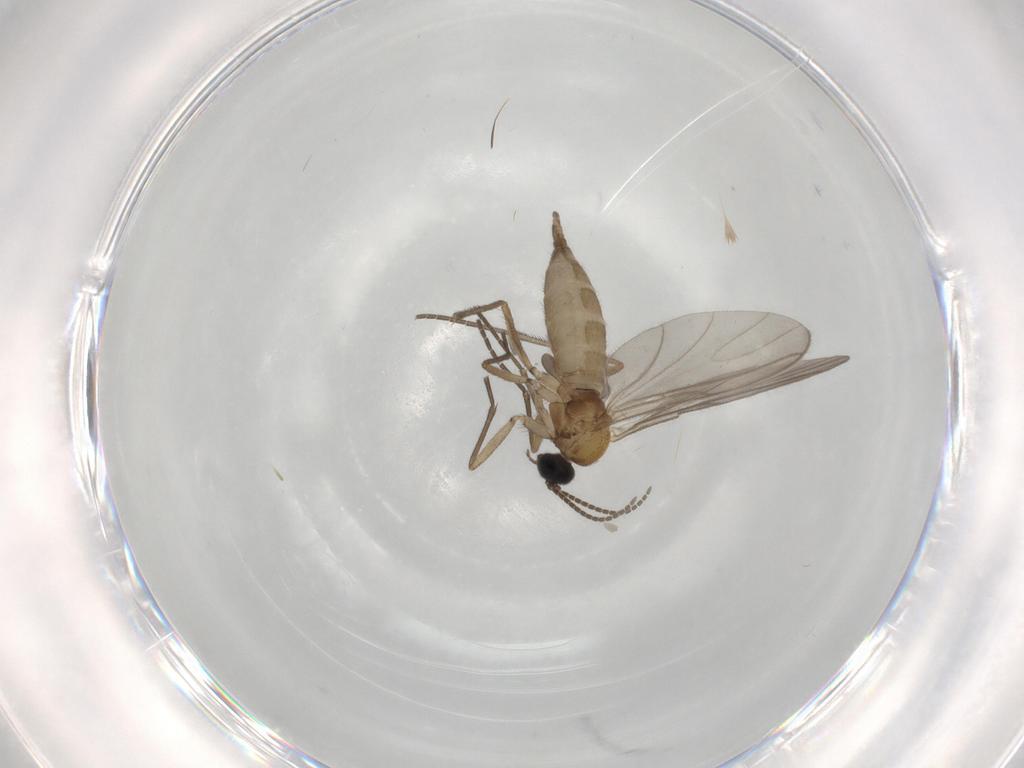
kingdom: Animalia
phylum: Arthropoda
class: Insecta
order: Diptera
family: Sciaridae
